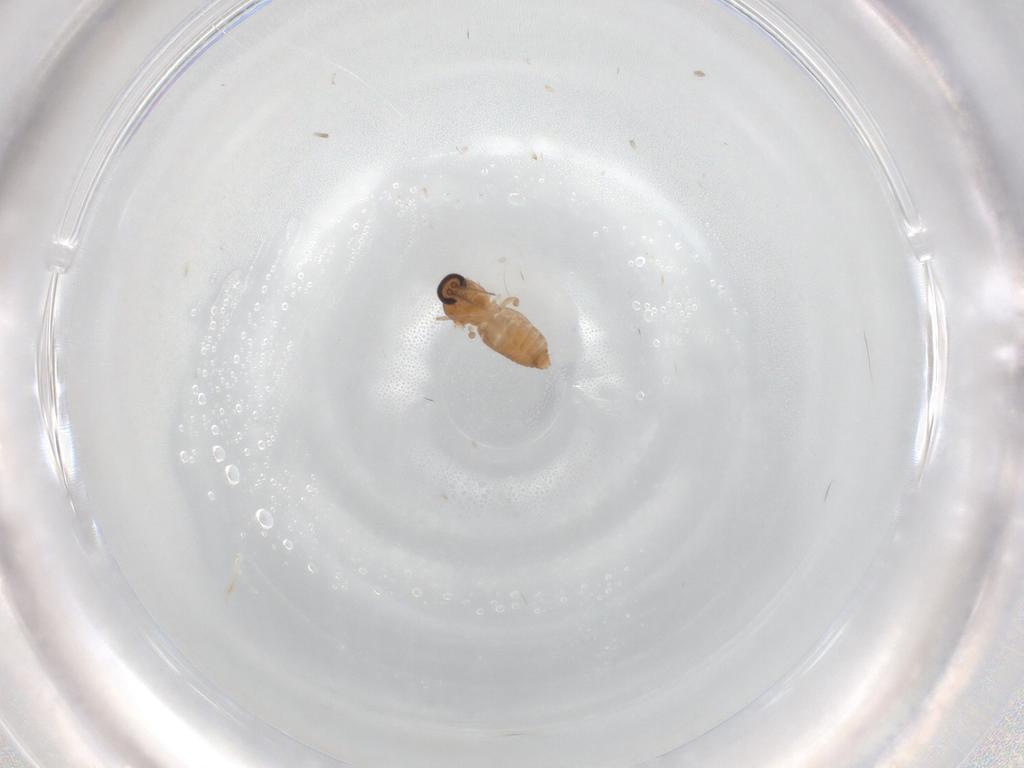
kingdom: Animalia
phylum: Arthropoda
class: Insecta
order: Diptera
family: Ceratopogonidae
